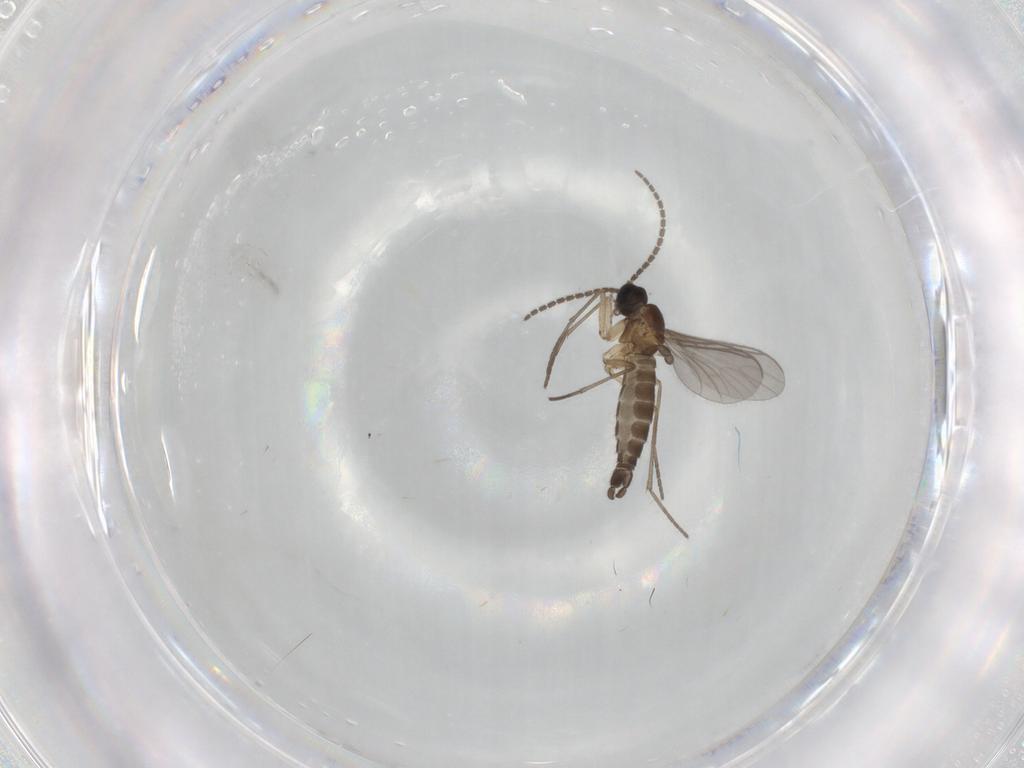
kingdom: Animalia
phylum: Arthropoda
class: Insecta
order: Diptera
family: Sciaridae
